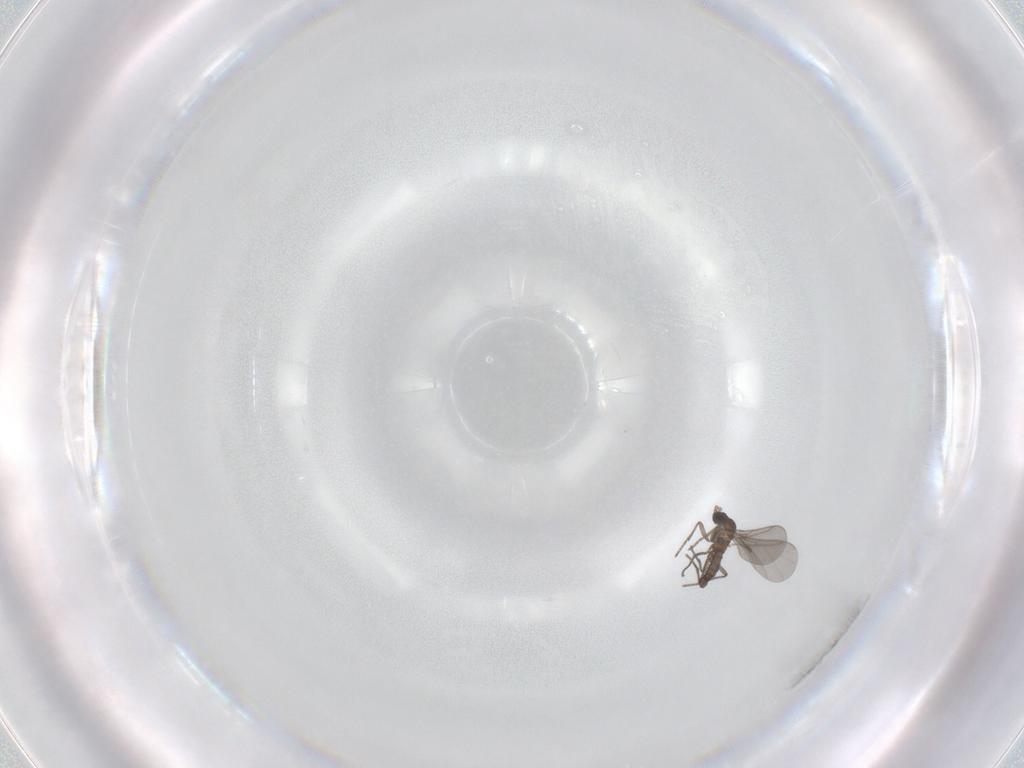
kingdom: Animalia
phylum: Arthropoda
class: Insecta
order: Diptera
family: Sciaridae
